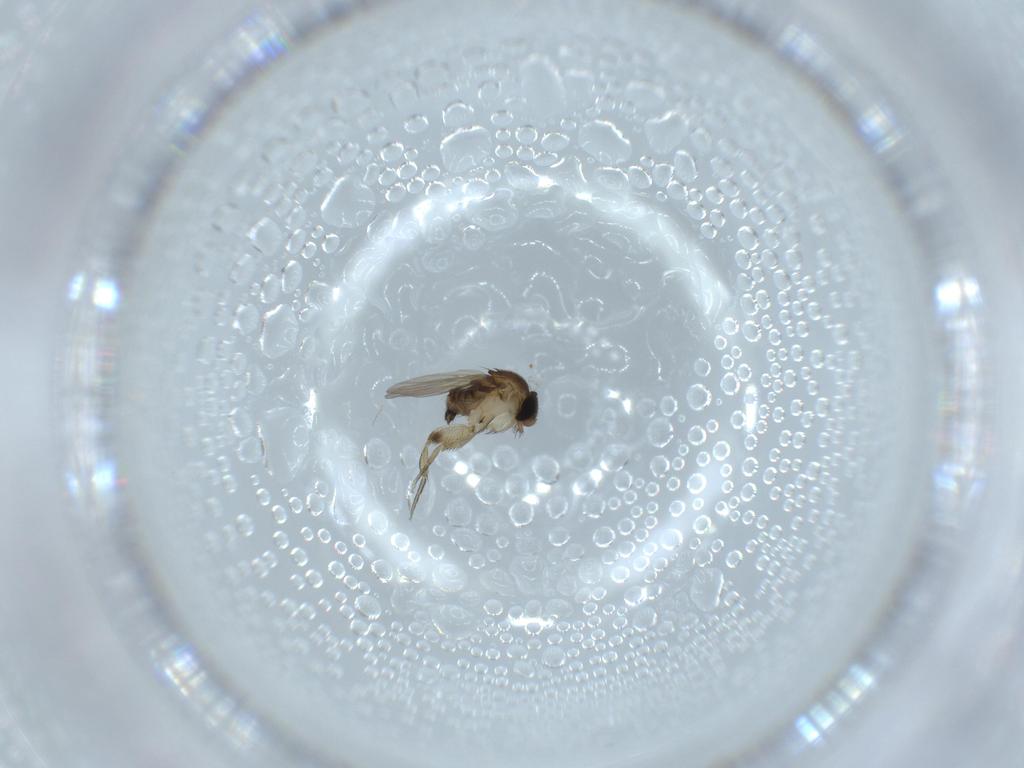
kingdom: Animalia
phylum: Arthropoda
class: Insecta
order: Diptera
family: Phoridae
